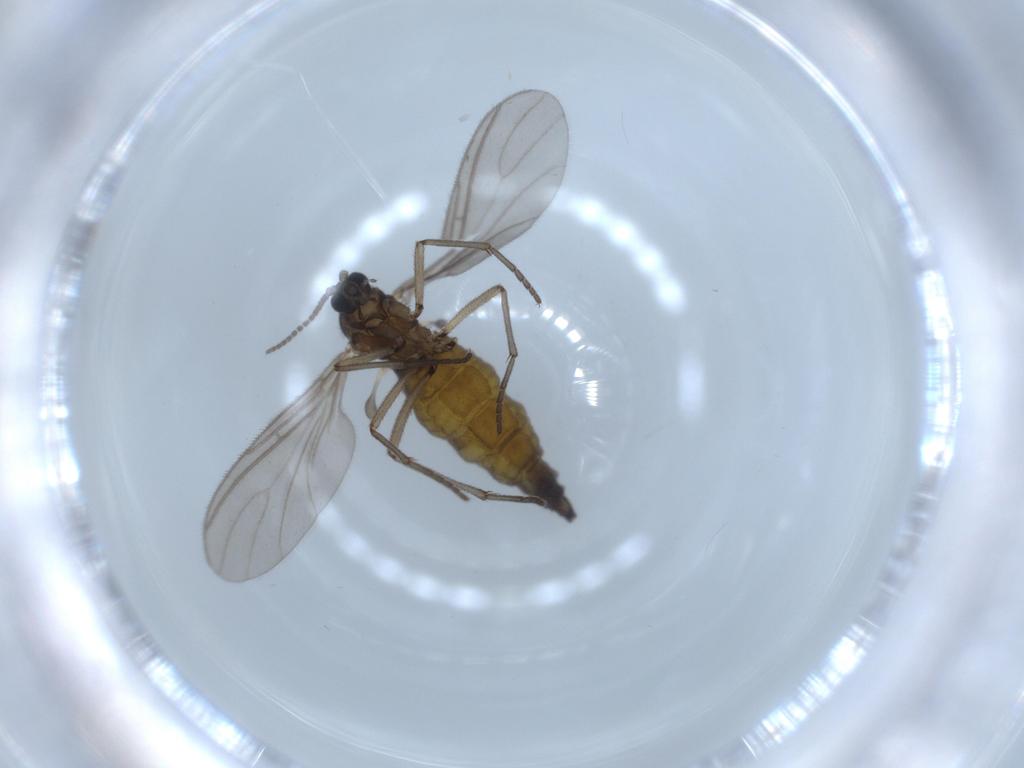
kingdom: Animalia
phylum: Arthropoda
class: Insecta
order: Diptera
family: Sciaridae
